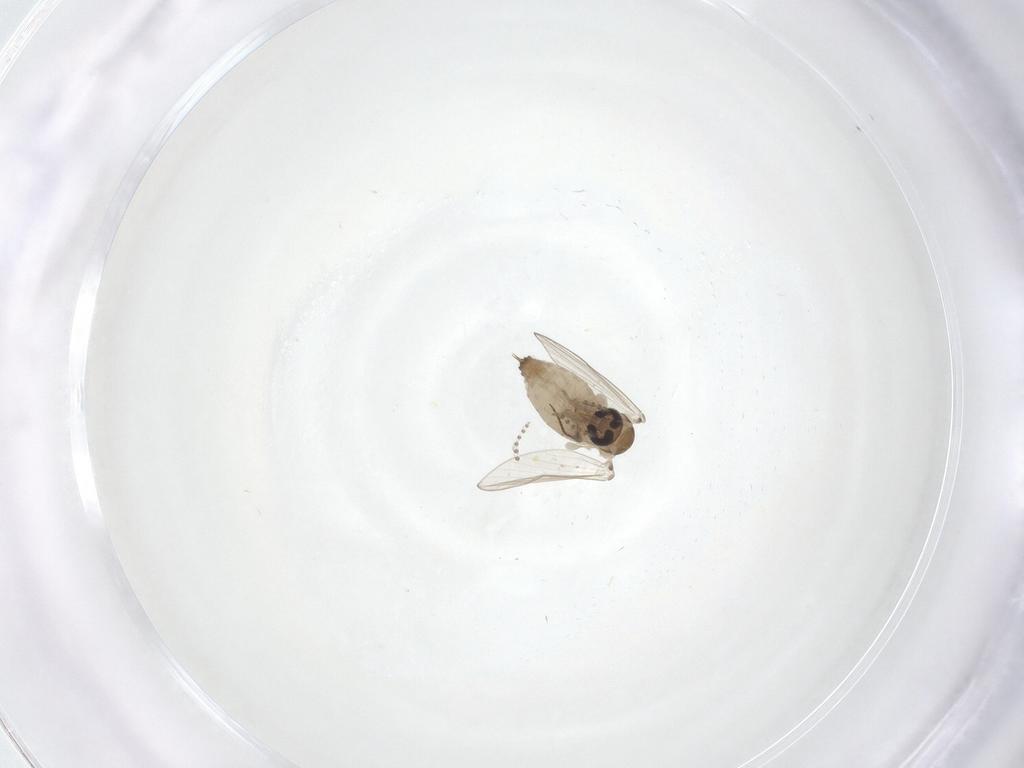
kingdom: Animalia
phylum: Arthropoda
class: Insecta
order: Diptera
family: Psychodidae
